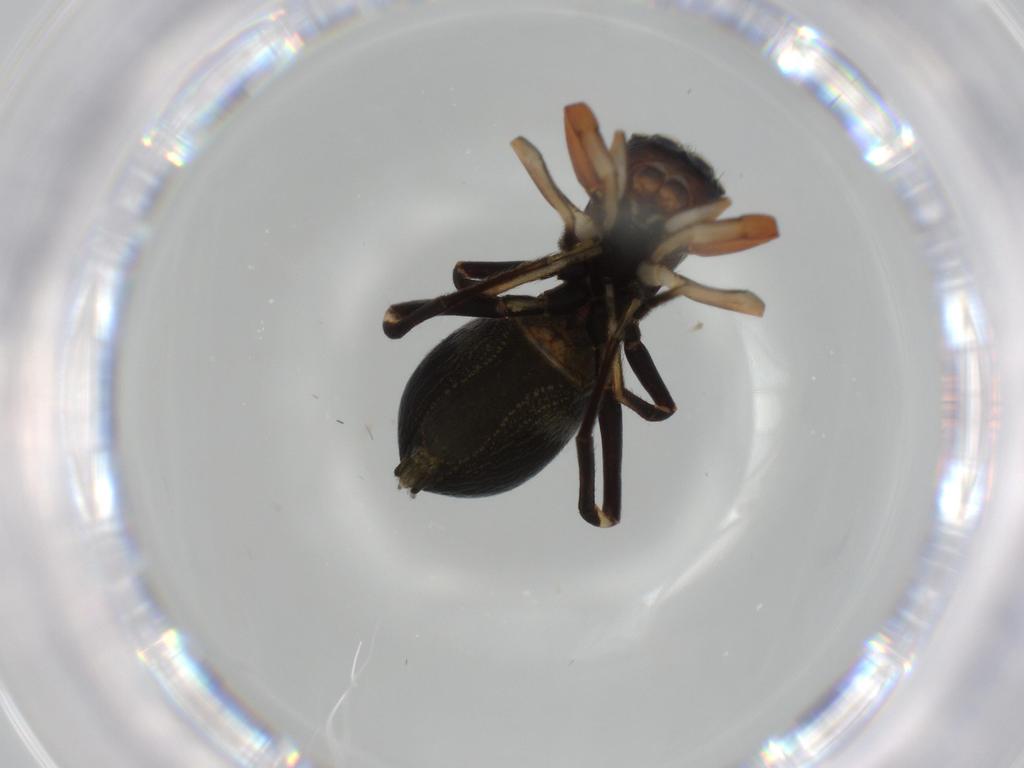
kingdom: Animalia
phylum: Arthropoda
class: Arachnida
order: Araneae
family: Salticidae
